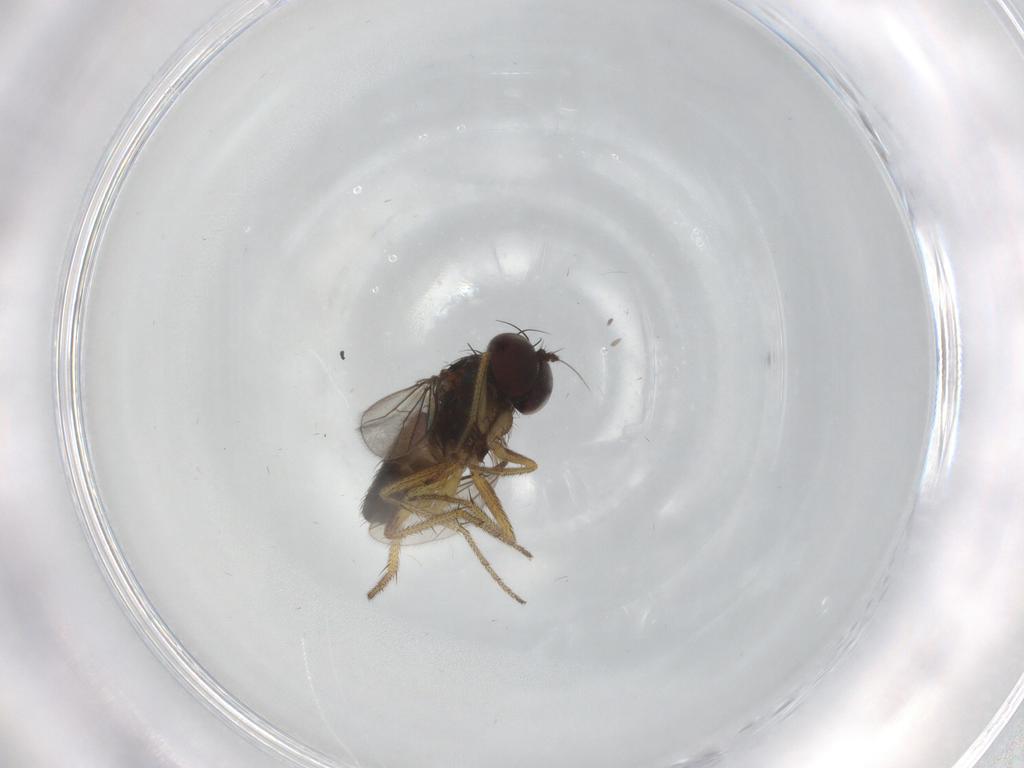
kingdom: Animalia
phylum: Arthropoda
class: Insecta
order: Diptera
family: Dolichopodidae
